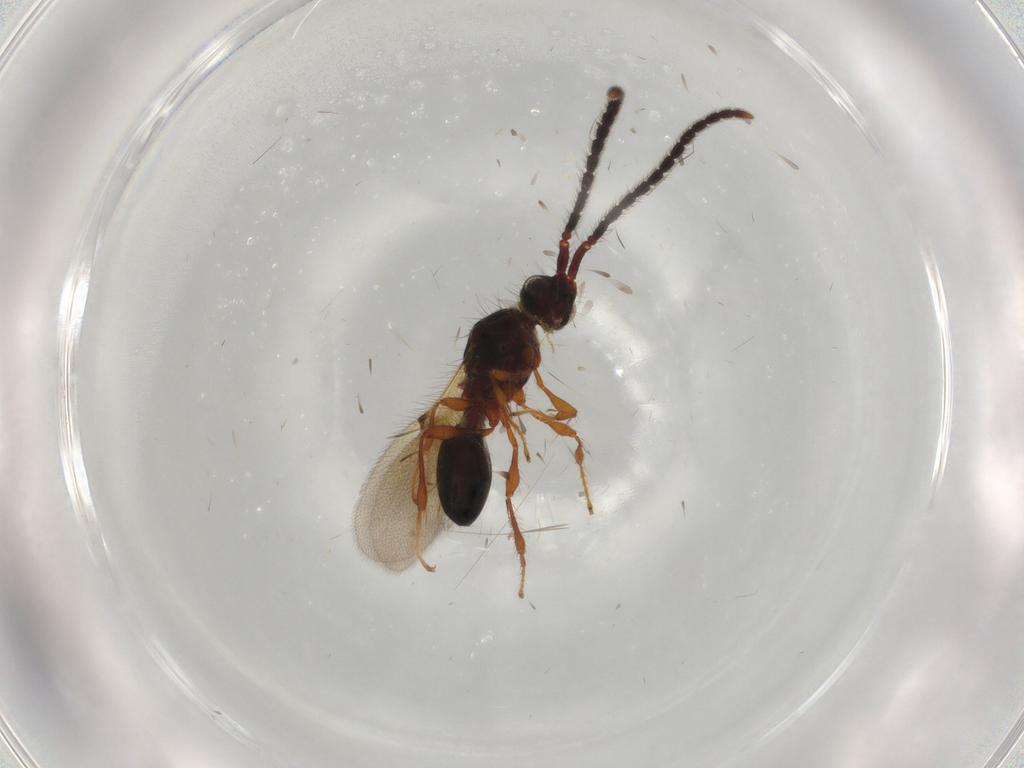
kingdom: Animalia
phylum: Arthropoda
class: Insecta
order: Hymenoptera
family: Diapriidae
